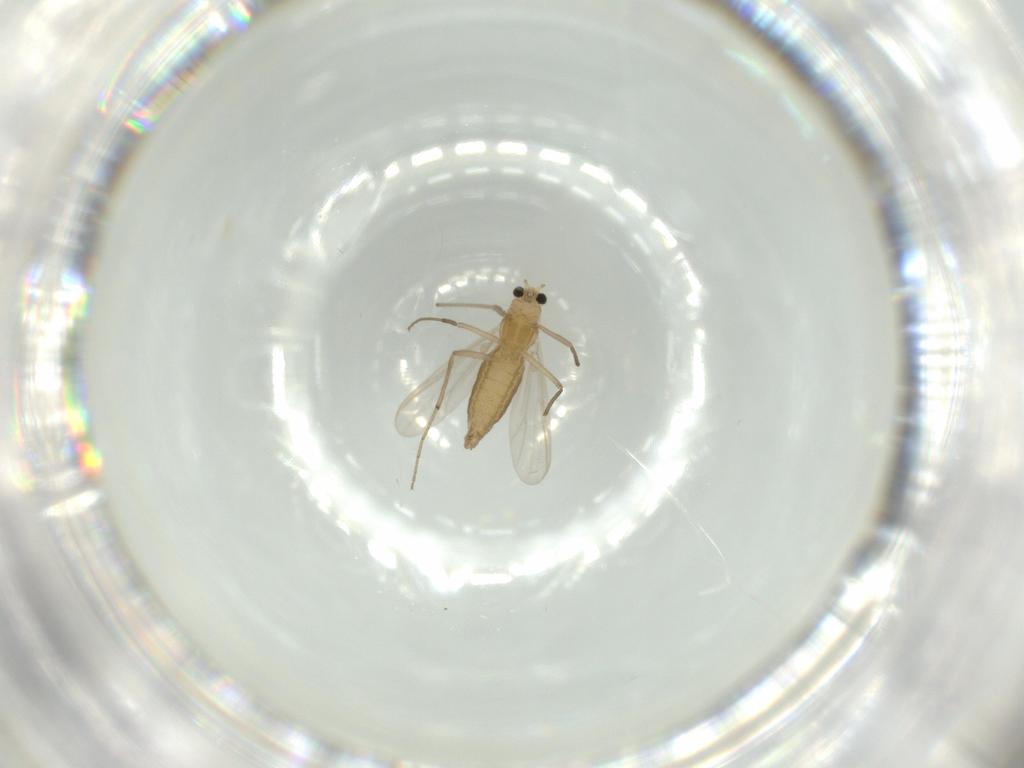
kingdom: Animalia
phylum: Arthropoda
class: Insecta
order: Diptera
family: Chironomidae
